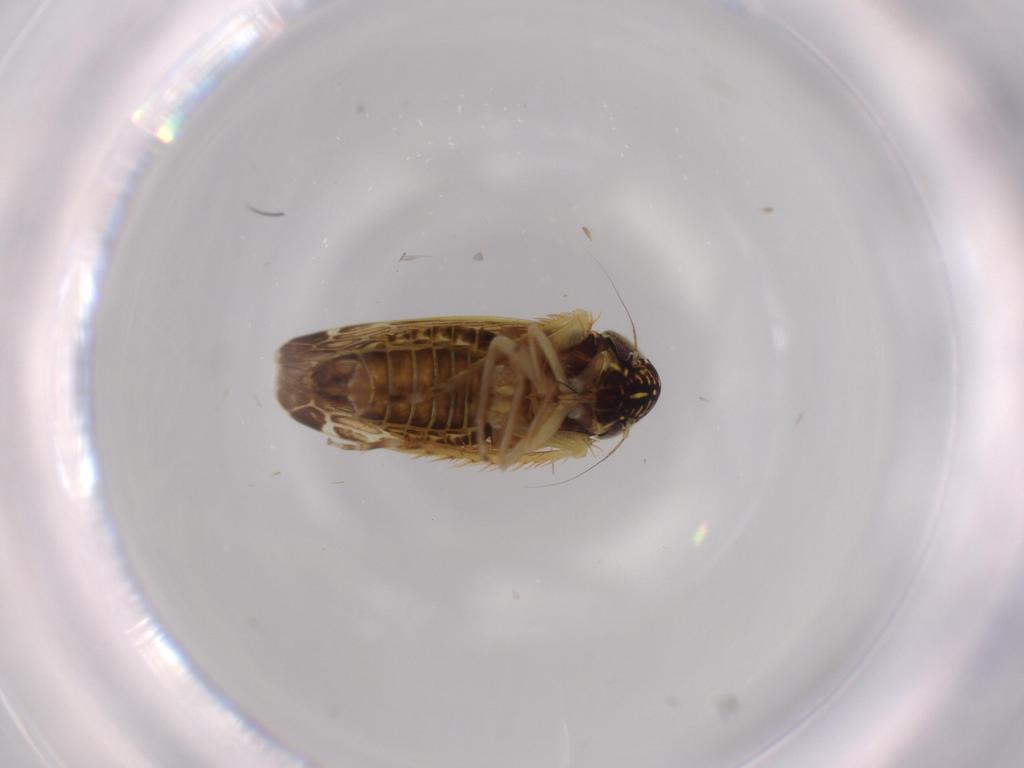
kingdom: Animalia
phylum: Arthropoda
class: Insecta
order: Hemiptera
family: Cicadellidae
